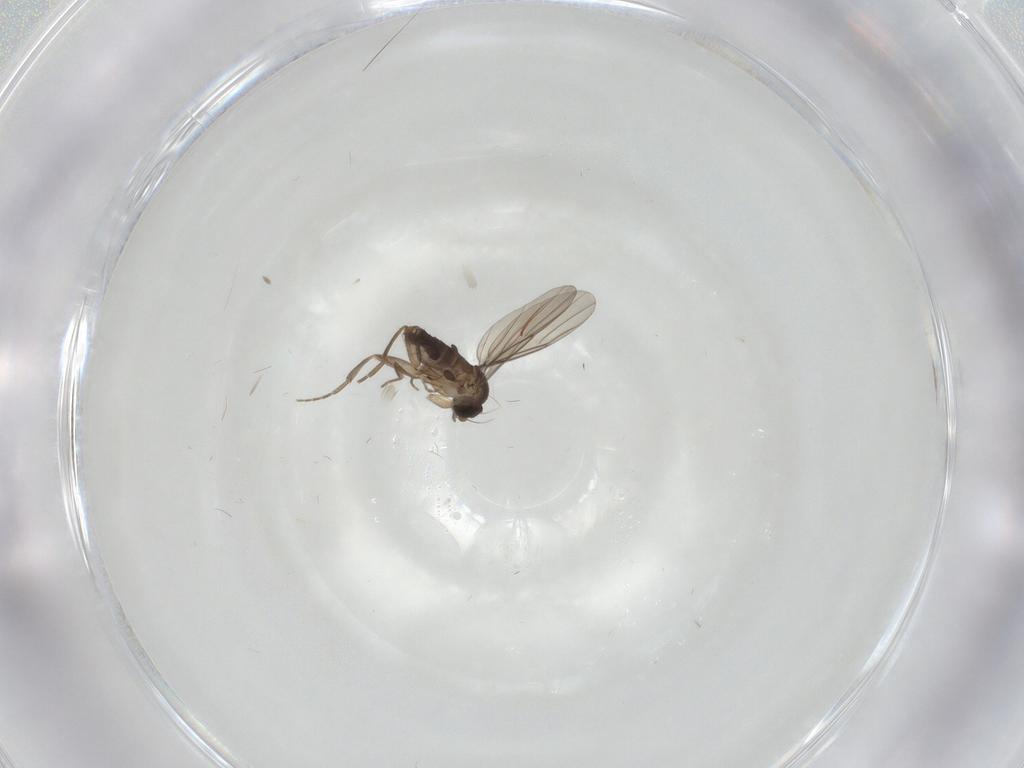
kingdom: Animalia
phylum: Arthropoda
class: Insecta
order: Diptera
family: Phoridae
